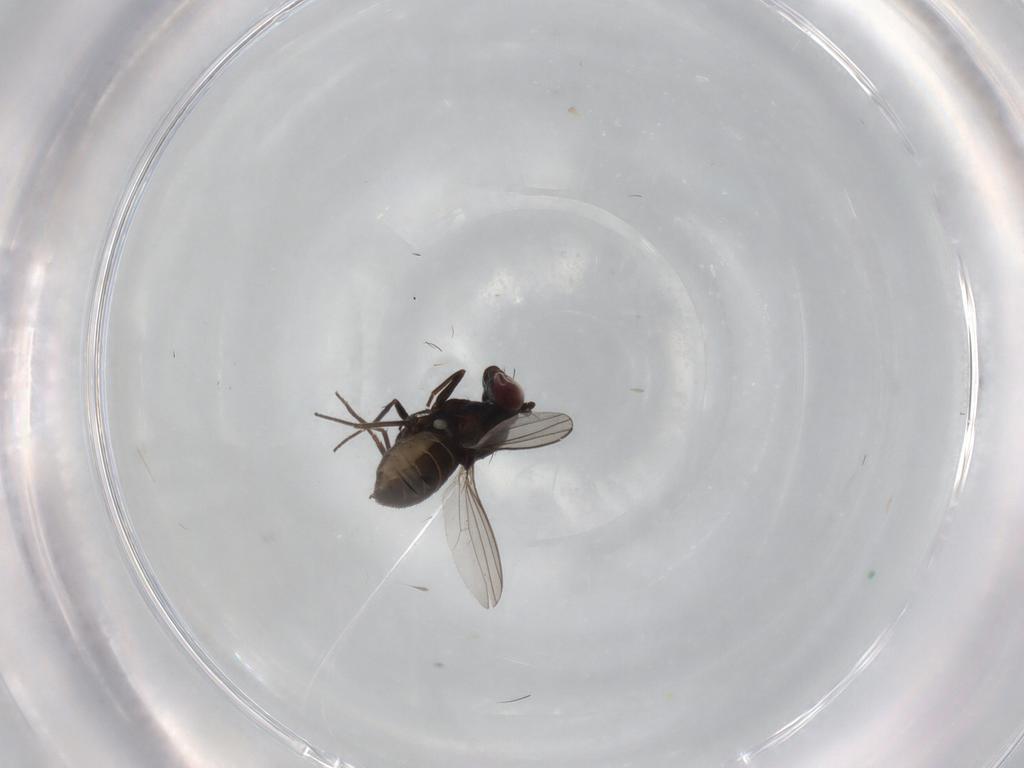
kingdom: Animalia
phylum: Arthropoda
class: Insecta
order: Diptera
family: Dolichopodidae
